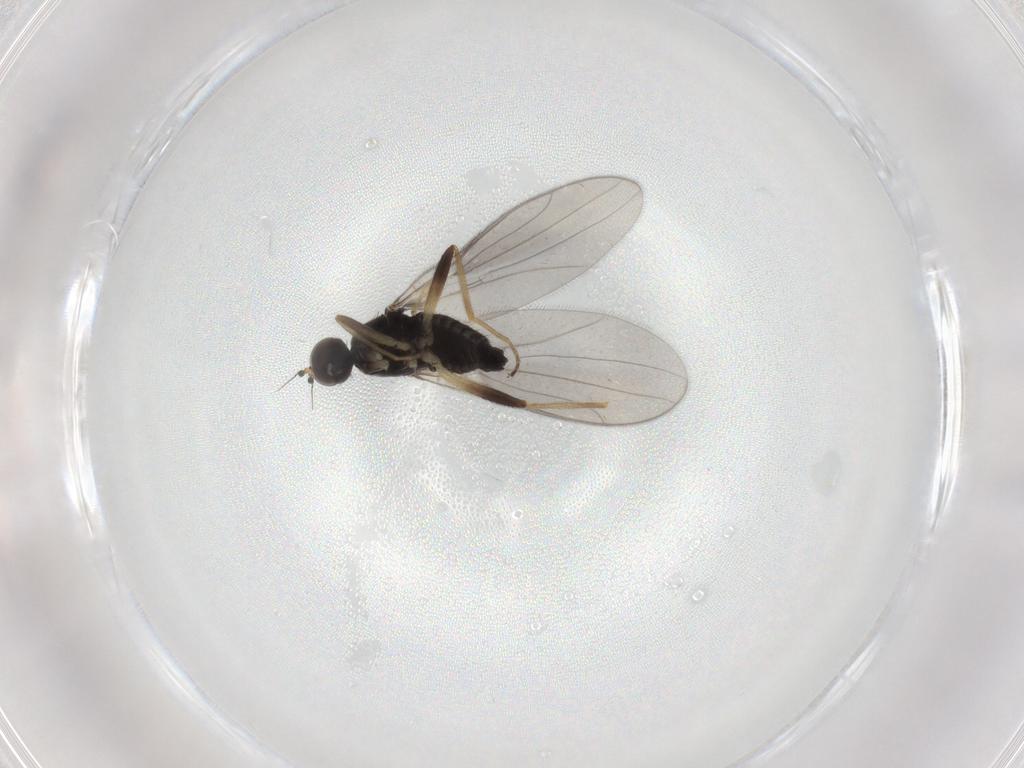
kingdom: Animalia
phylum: Arthropoda
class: Insecta
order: Diptera
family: Hybotidae
